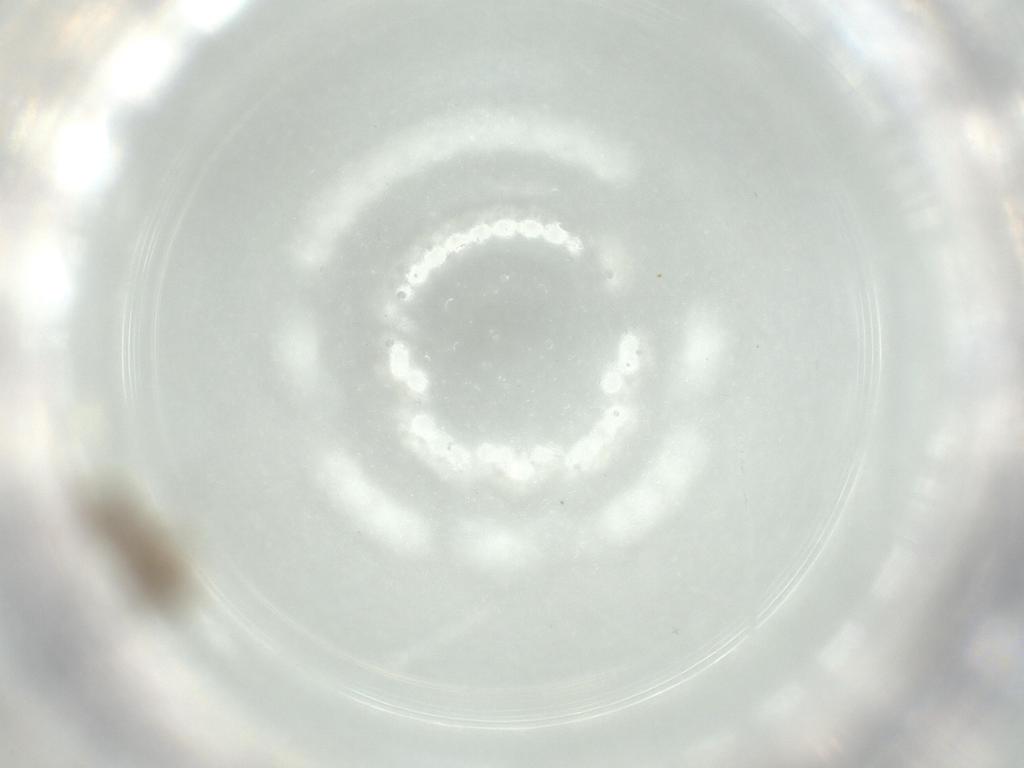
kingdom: Animalia
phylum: Arthropoda
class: Insecta
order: Diptera
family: Chironomidae
